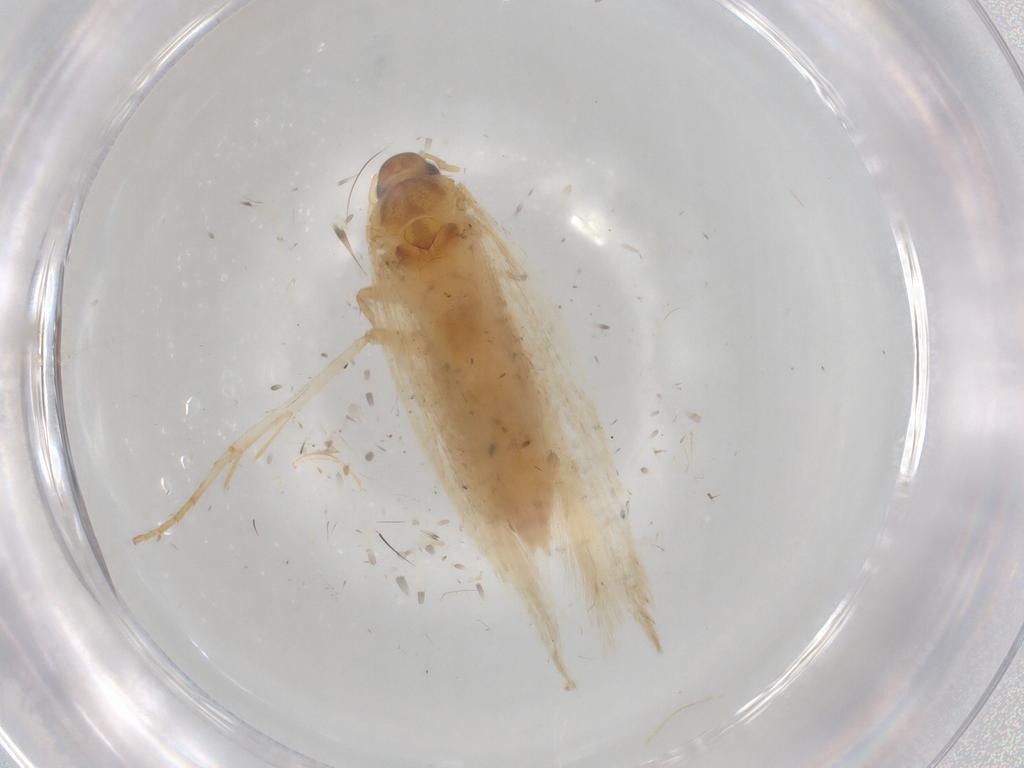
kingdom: Animalia
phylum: Arthropoda
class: Insecta
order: Lepidoptera
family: Gelechiidae
